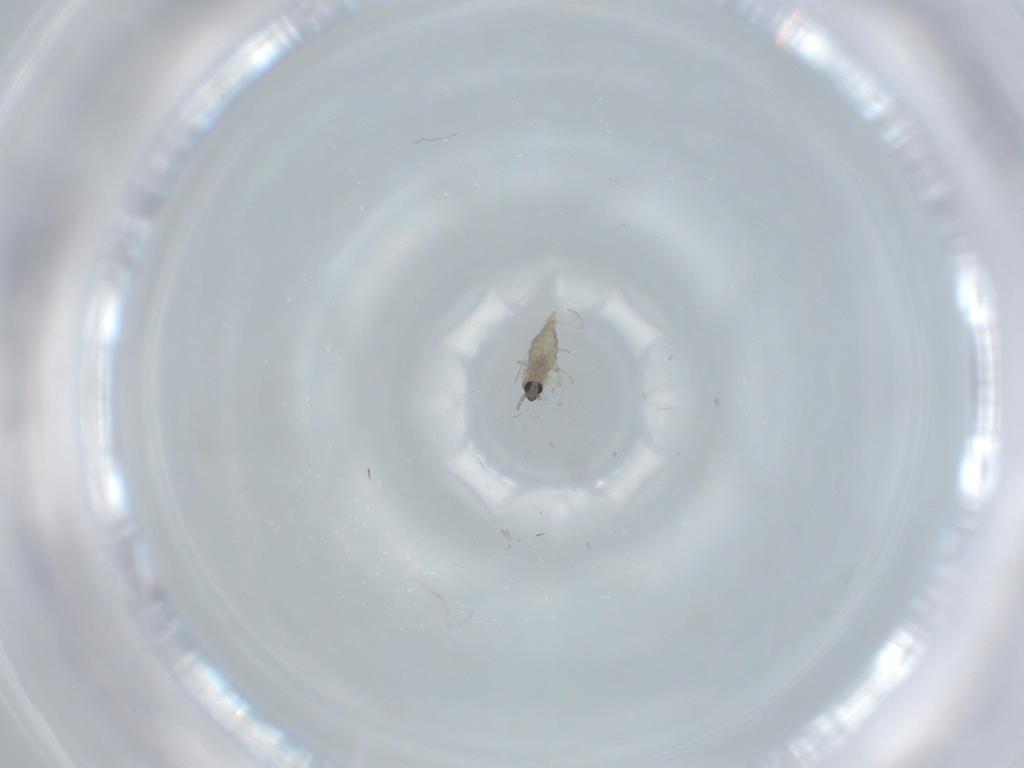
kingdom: Animalia
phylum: Arthropoda
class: Insecta
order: Diptera
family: Cecidomyiidae
